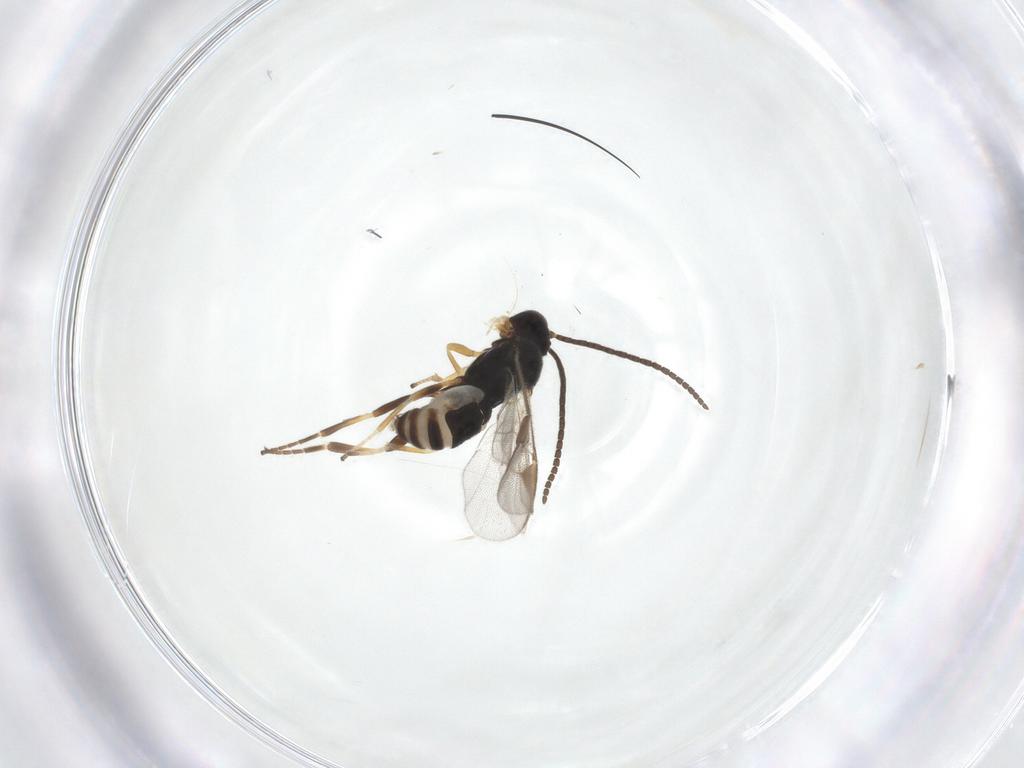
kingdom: Animalia
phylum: Arthropoda
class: Insecta
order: Hymenoptera
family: Braconidae
